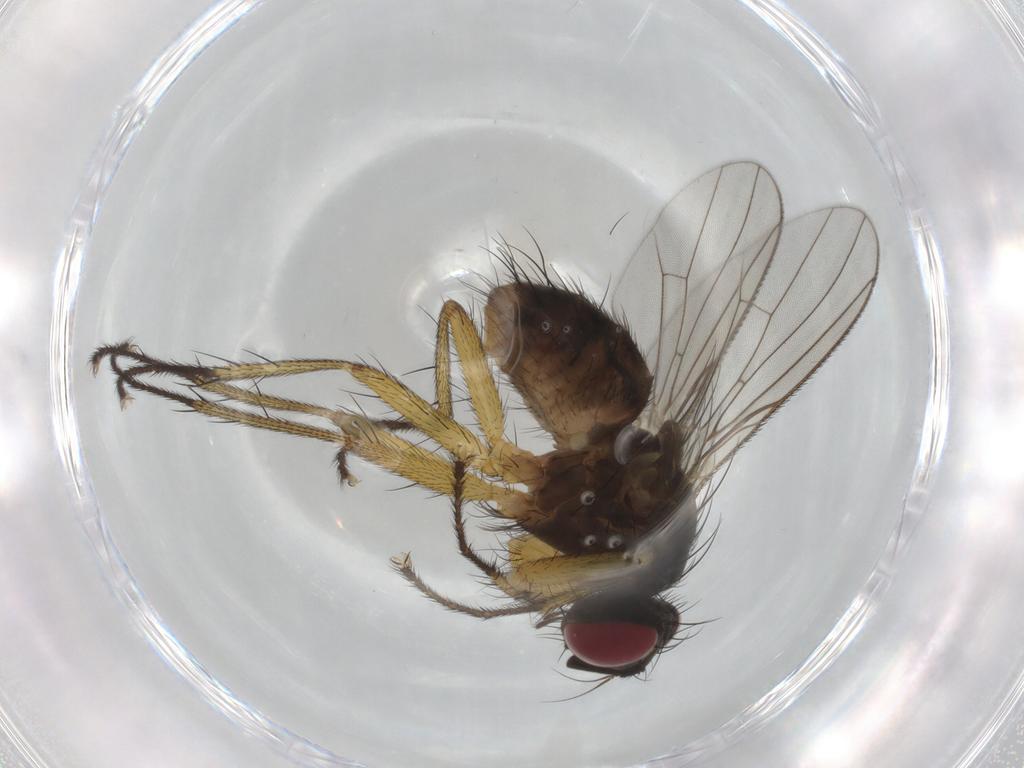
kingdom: Animalia
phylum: Arthropoda
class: Insecta
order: Diptera
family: Muscidae
